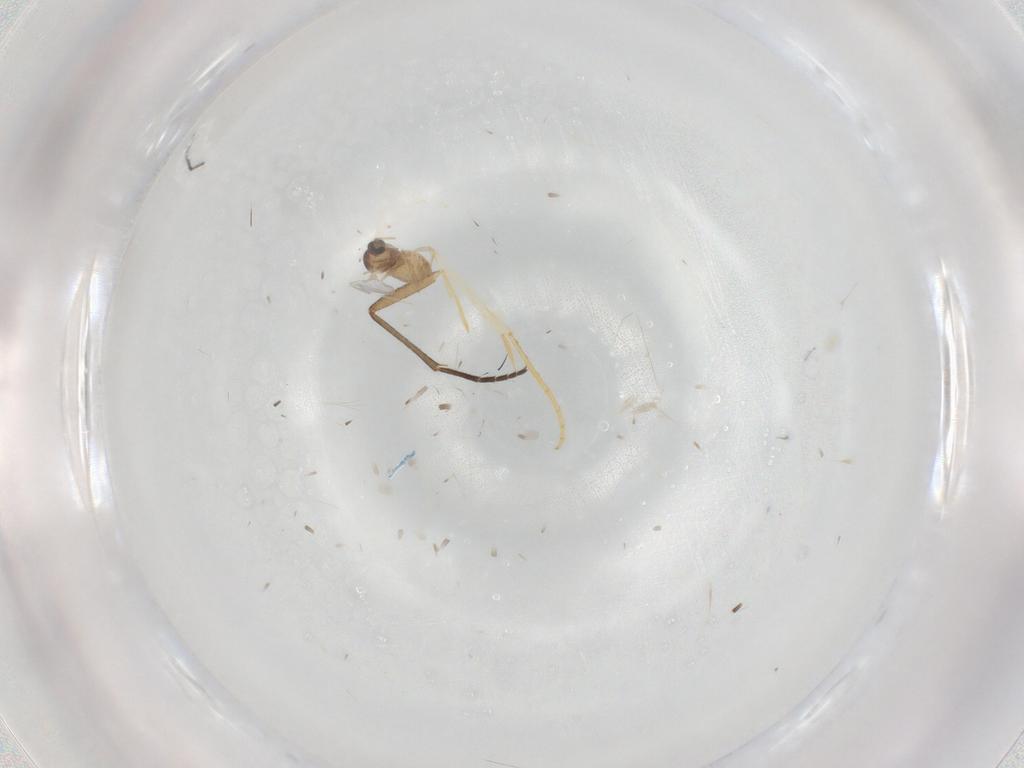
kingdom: Animalia
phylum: Arthropoda
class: Insecta
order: Diptera
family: Cecidomyiidae
